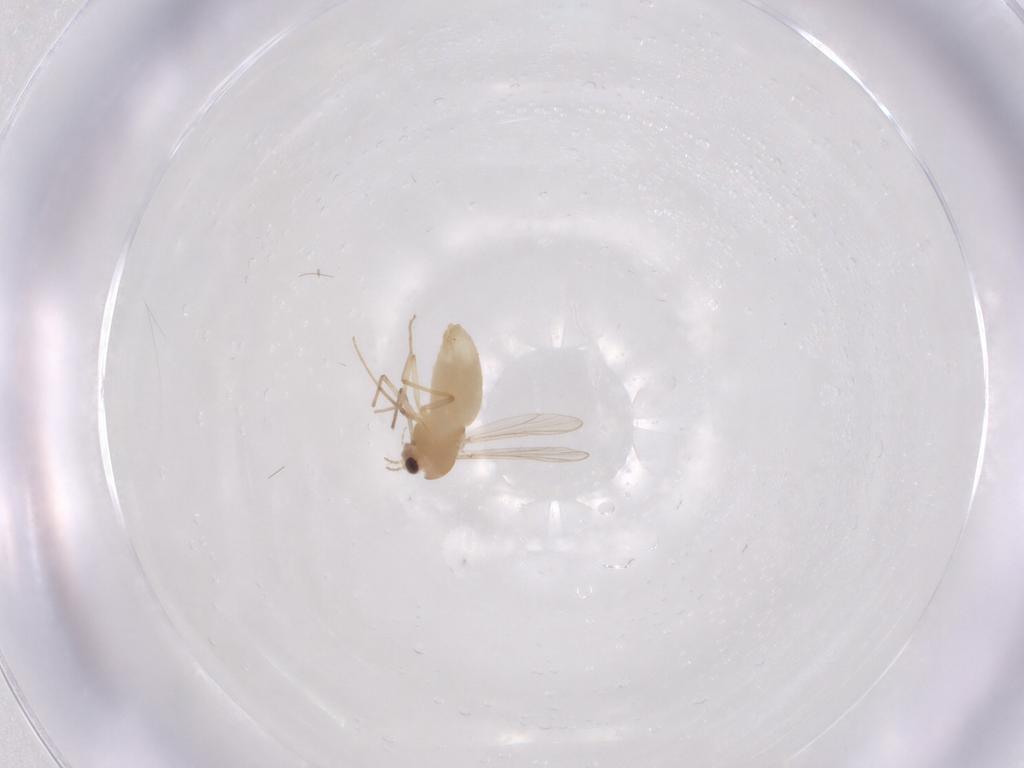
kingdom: Animalia
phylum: Arthropoda
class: Insecta
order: Diptera
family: Chironomidae
